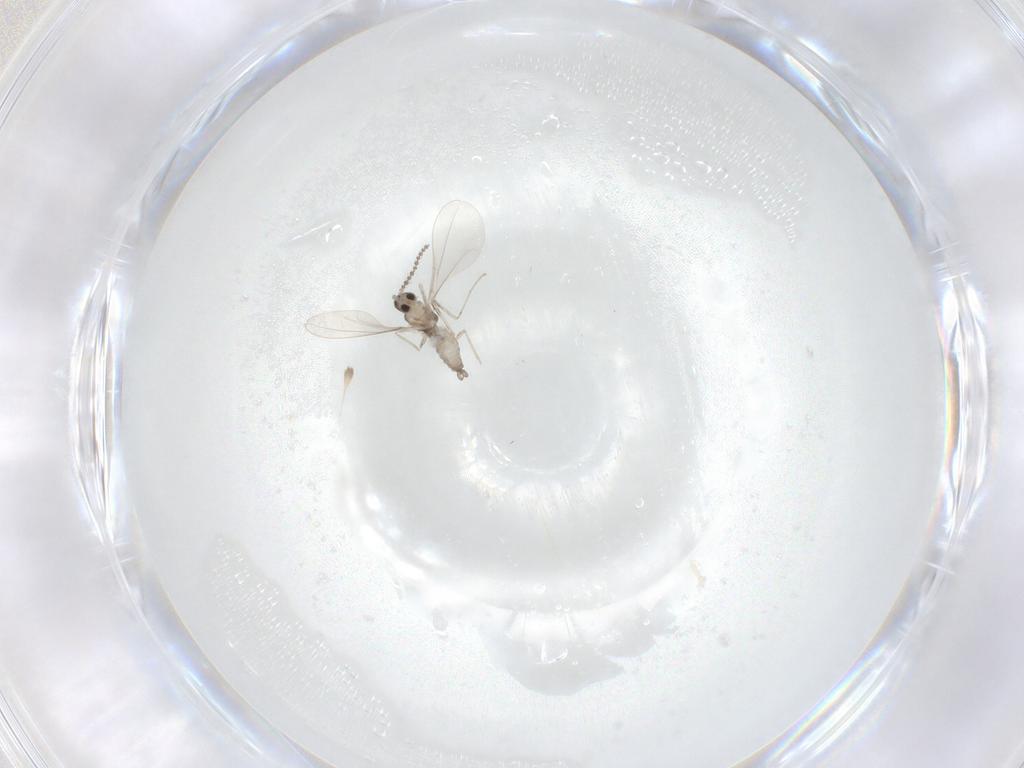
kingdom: Animalia
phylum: Arthropoda
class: Insecta
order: Diptera
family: Cecidomyiidae
